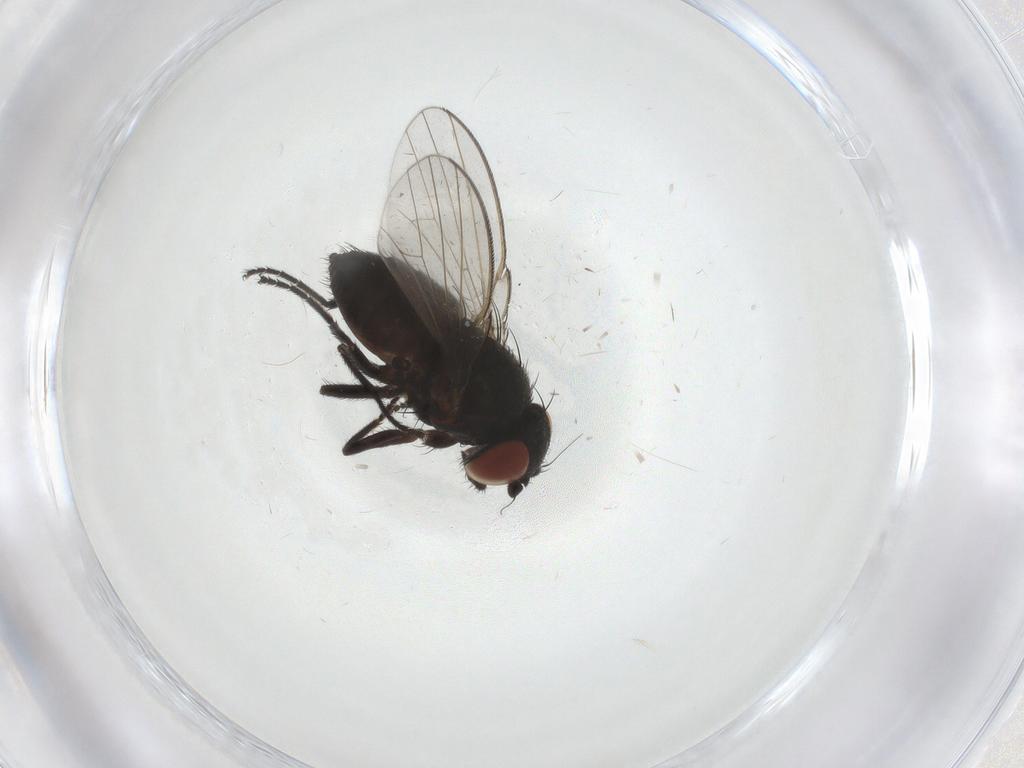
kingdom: Animalia
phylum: Arthropoda
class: Insecta
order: Diptera
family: Milichiidae
